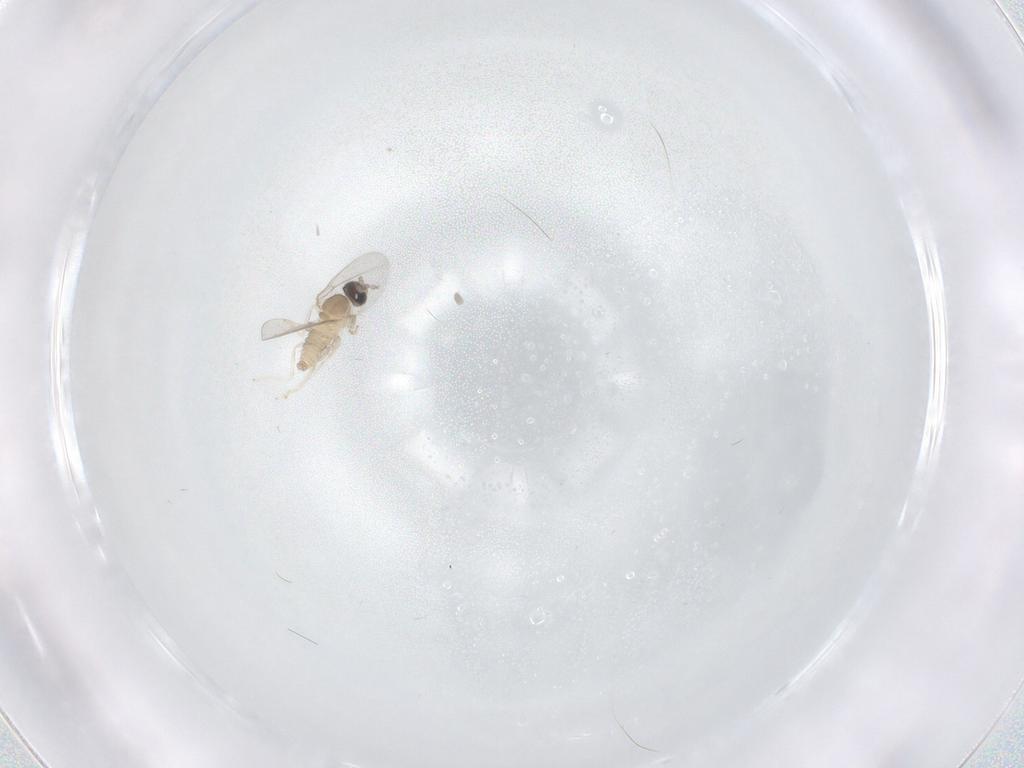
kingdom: Animalia
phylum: Arthropoda
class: Insecta
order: Diptera
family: Cecidomyiidae
